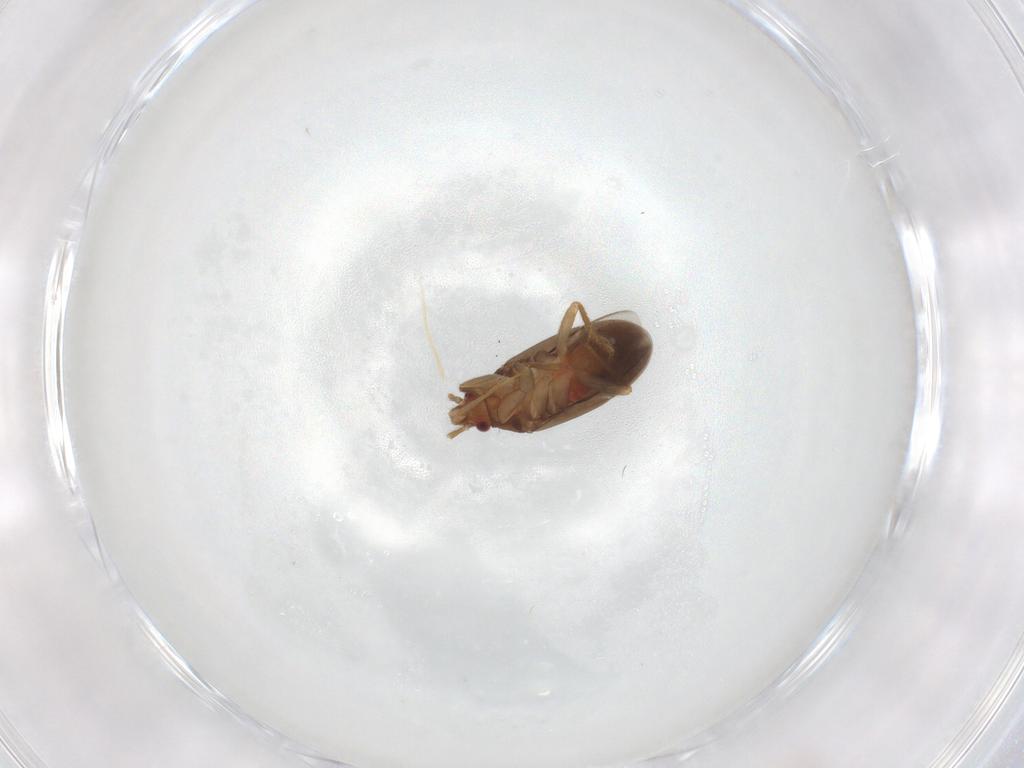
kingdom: Animalia
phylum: Arthropoda
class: Insecta
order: Hemiptera
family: Ceratocombidae
